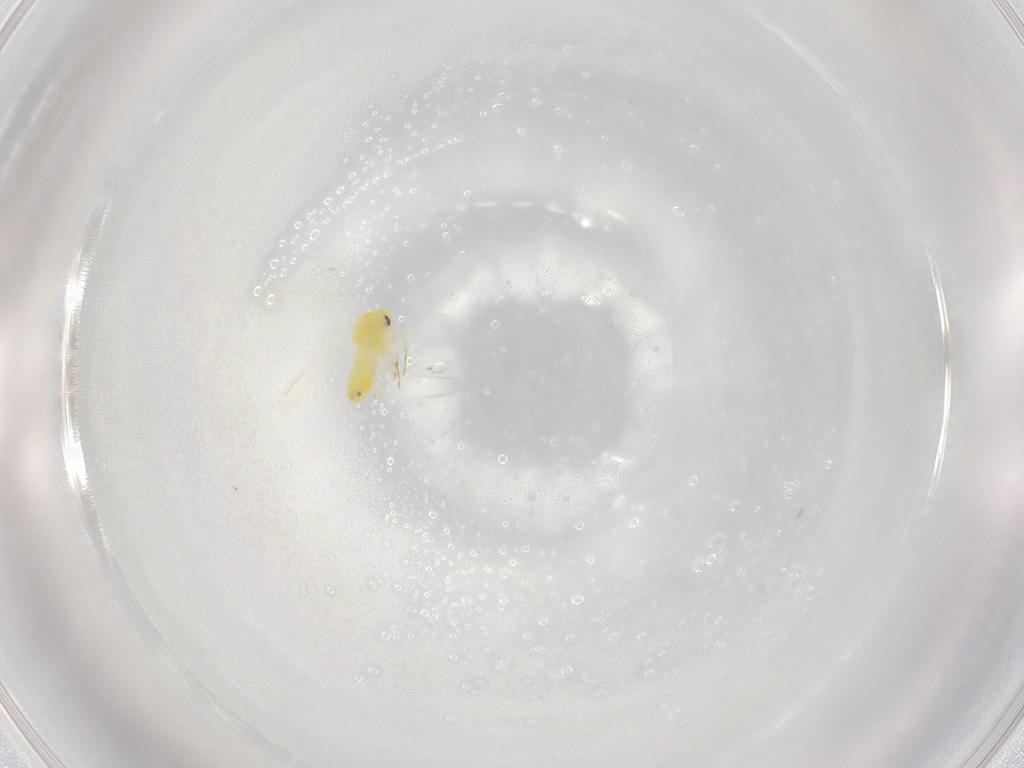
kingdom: Animalia
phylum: Arthropoda
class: Insecta
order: Hemiptera
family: Aleyrodidae
